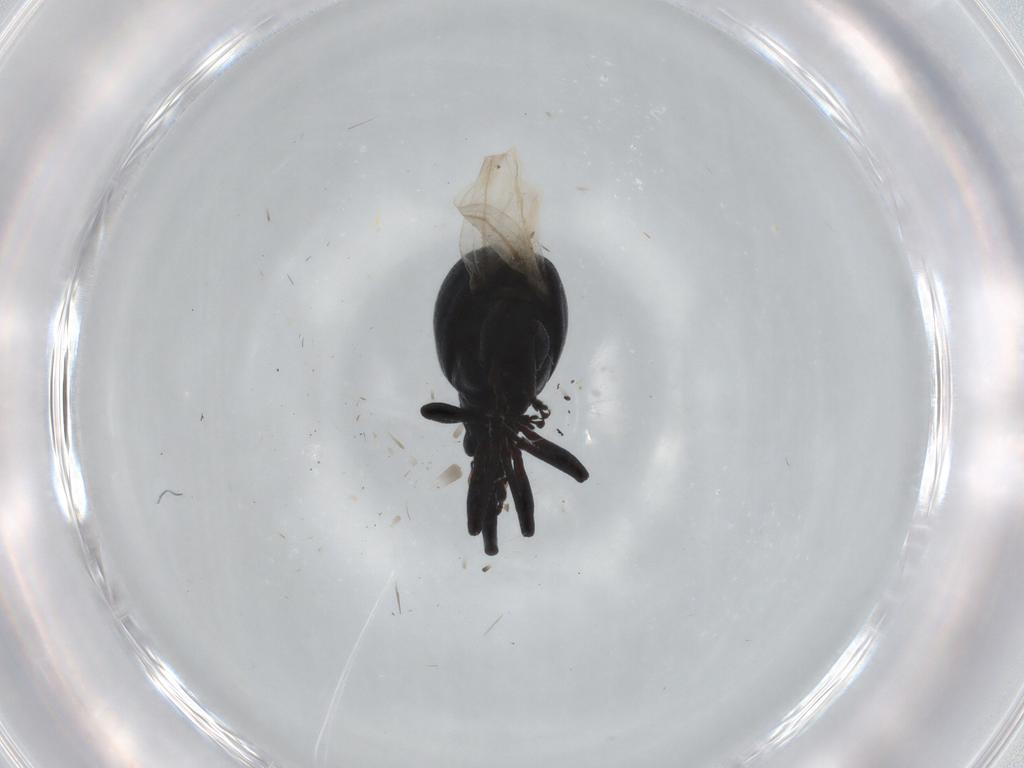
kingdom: Animalia
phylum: Arthropoda
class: Insecta
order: Coleoptera
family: Apionidae
